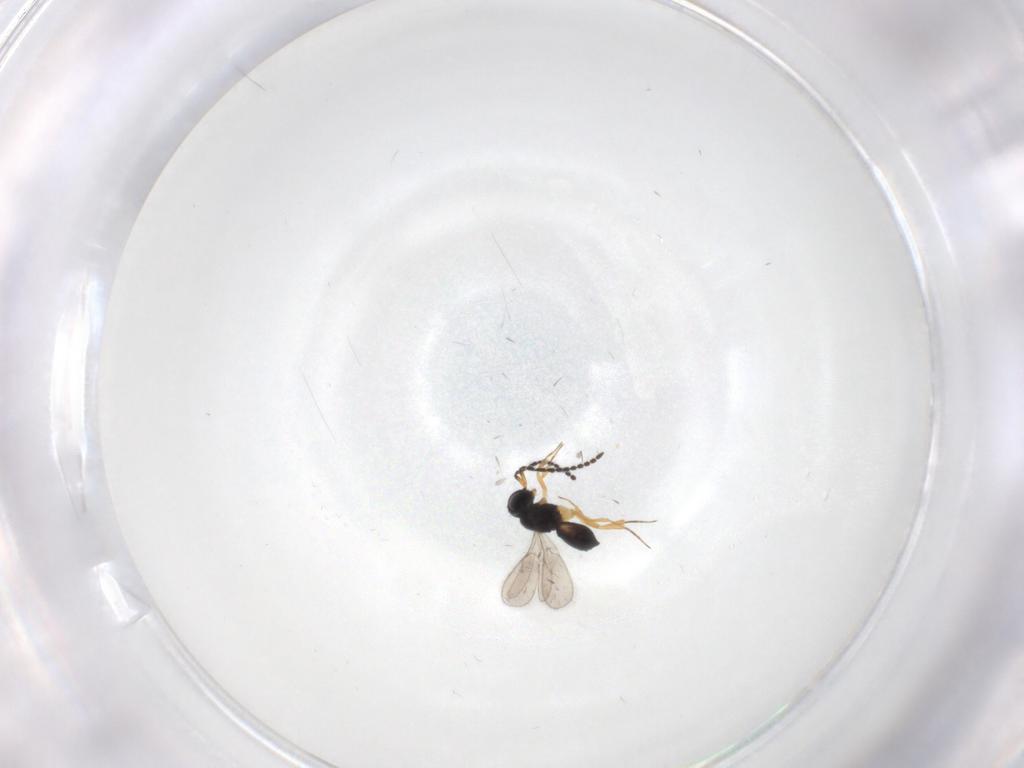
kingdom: Animalia
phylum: Arthropoda
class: Insecta
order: Hymenoptera
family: Scelionidae
